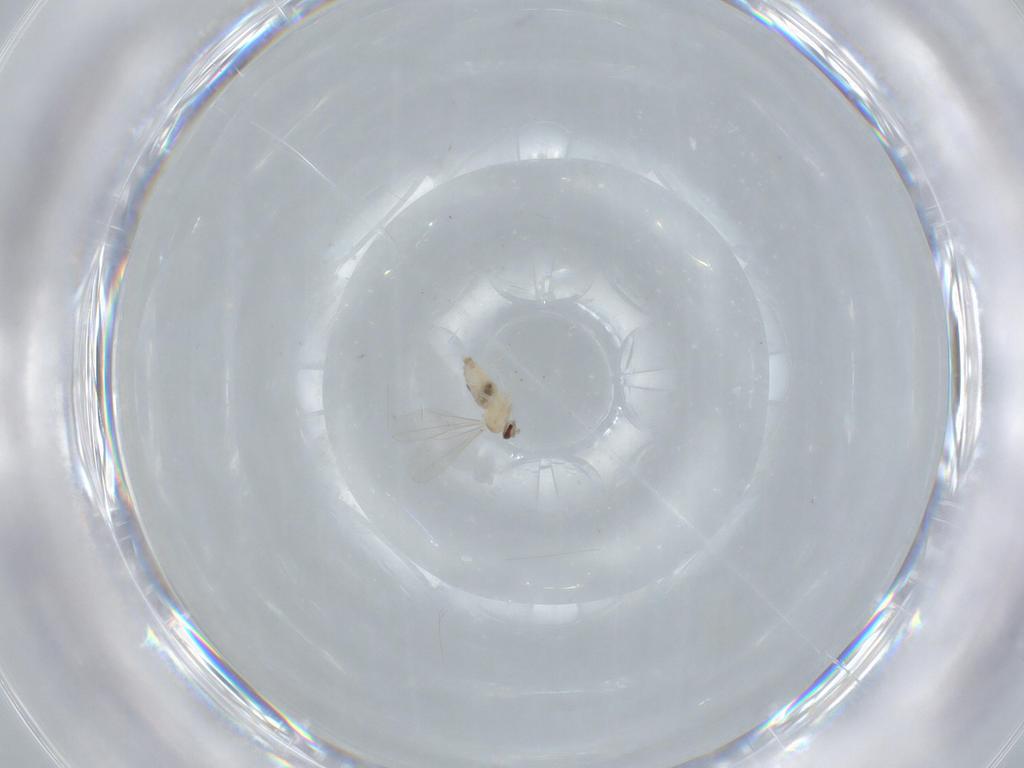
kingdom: Animalia
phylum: Arthropoda
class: Insecta
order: Diptera
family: Cecidomyiidae
